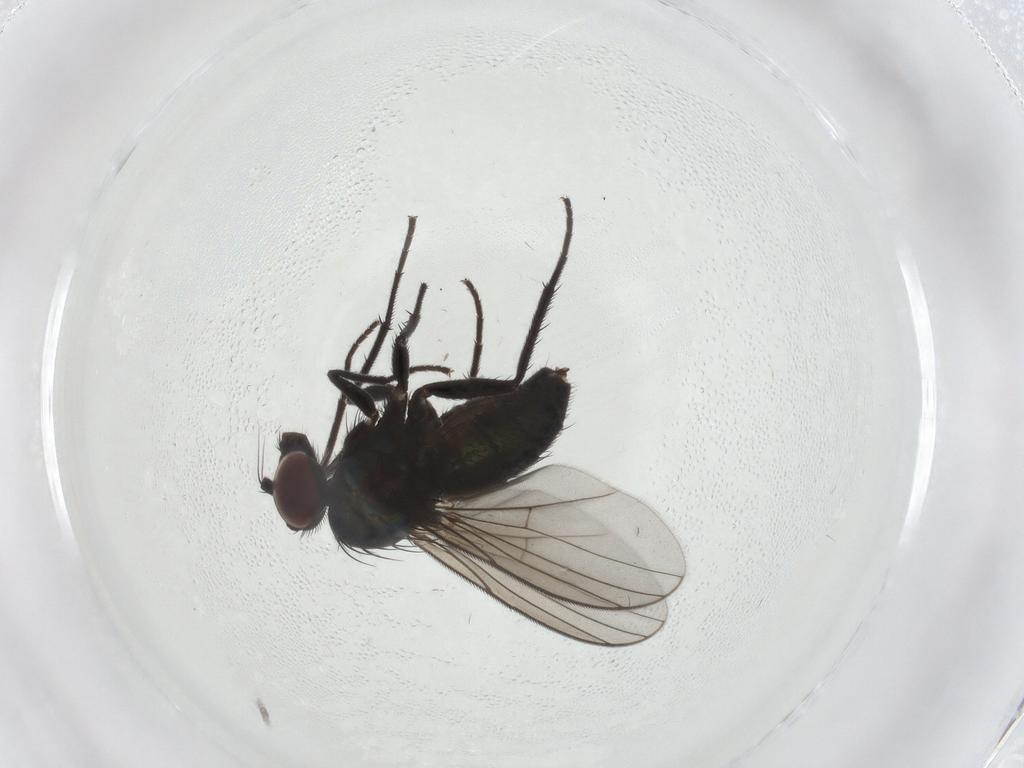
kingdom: Animalia
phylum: Arthropoda
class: Insecta
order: Diptera
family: Dolichopodidae
